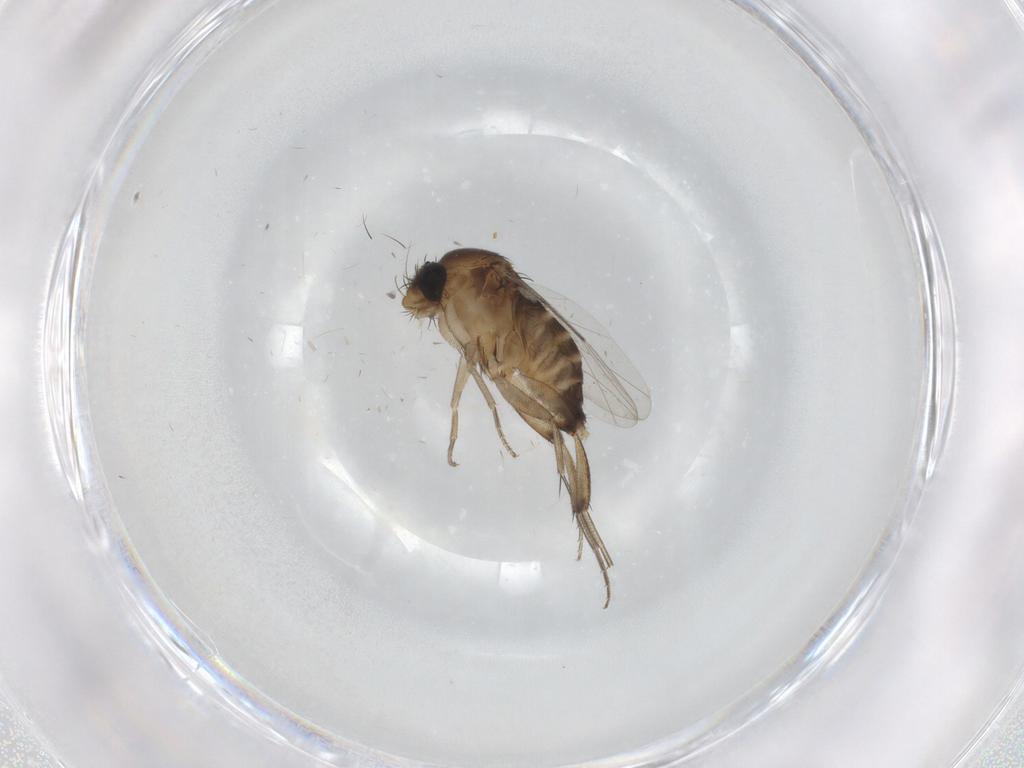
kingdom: Animalia
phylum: Arthropoda
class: Insecta
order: Diptera
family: Phoridae
